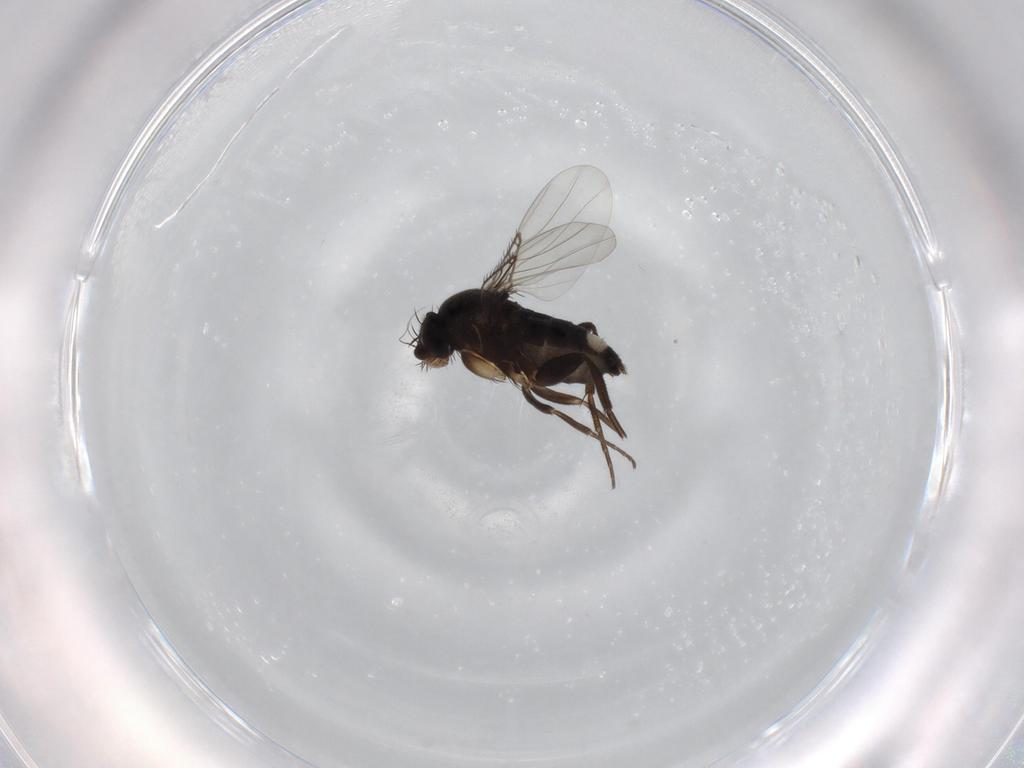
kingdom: Animalia
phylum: Arthropoda
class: Insecta
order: Diptera
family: Phoridae
